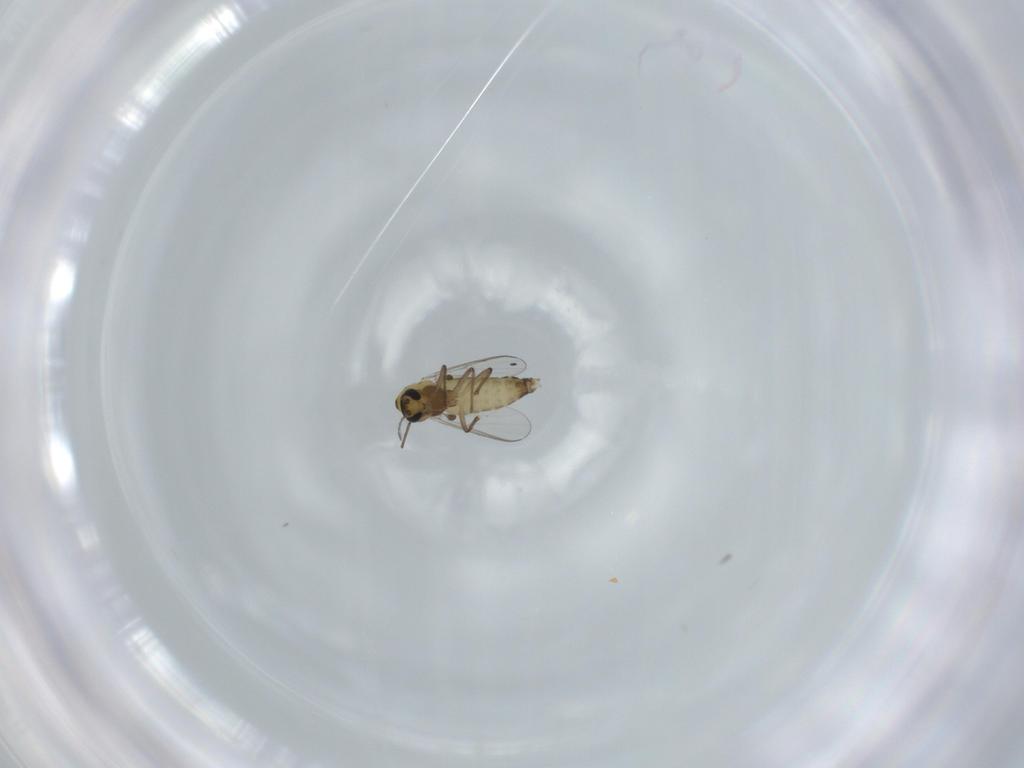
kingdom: Animalia
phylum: Arthropoda
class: Insecta
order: Diptera
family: Chironomidae
